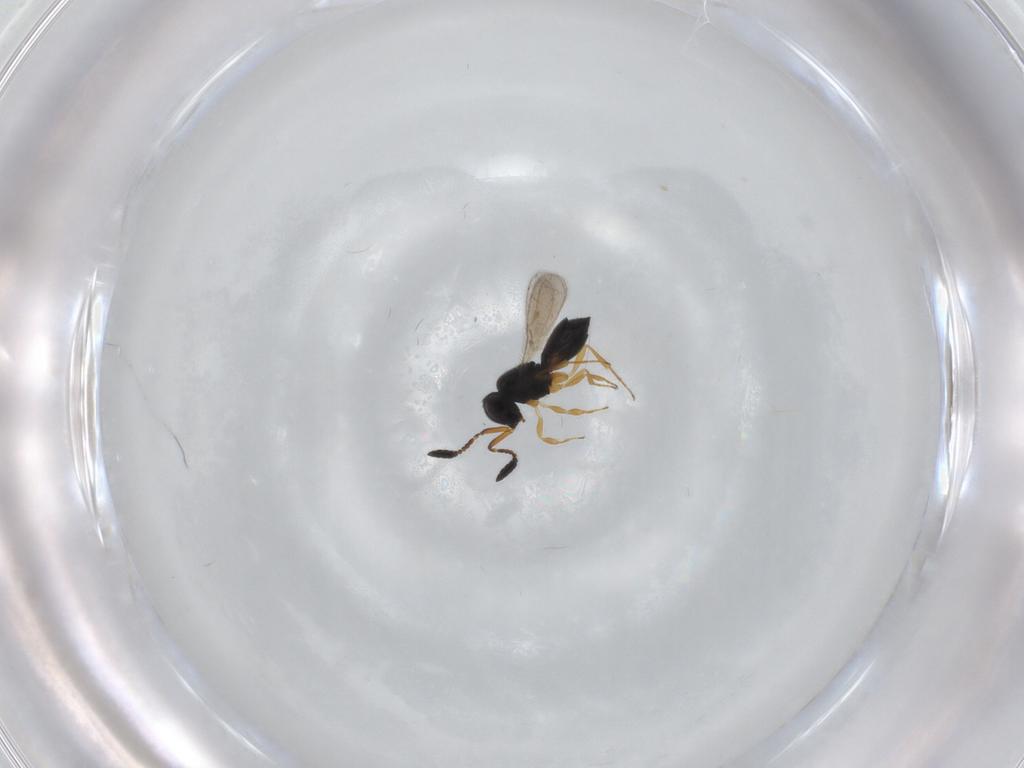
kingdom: Animalia
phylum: Arthropoda
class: Insecta
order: Hymenoptera
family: Scelionidae
